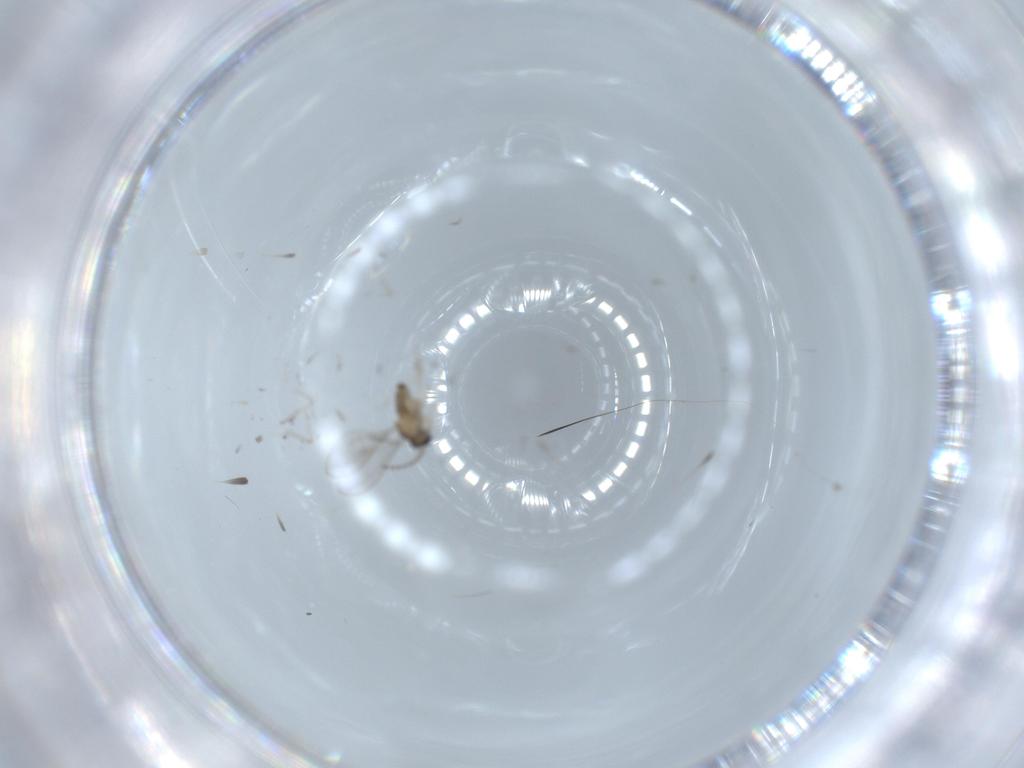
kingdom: Animalia
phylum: Arthropoda
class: Insecta
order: Diptera
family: Cecidomyiidae
